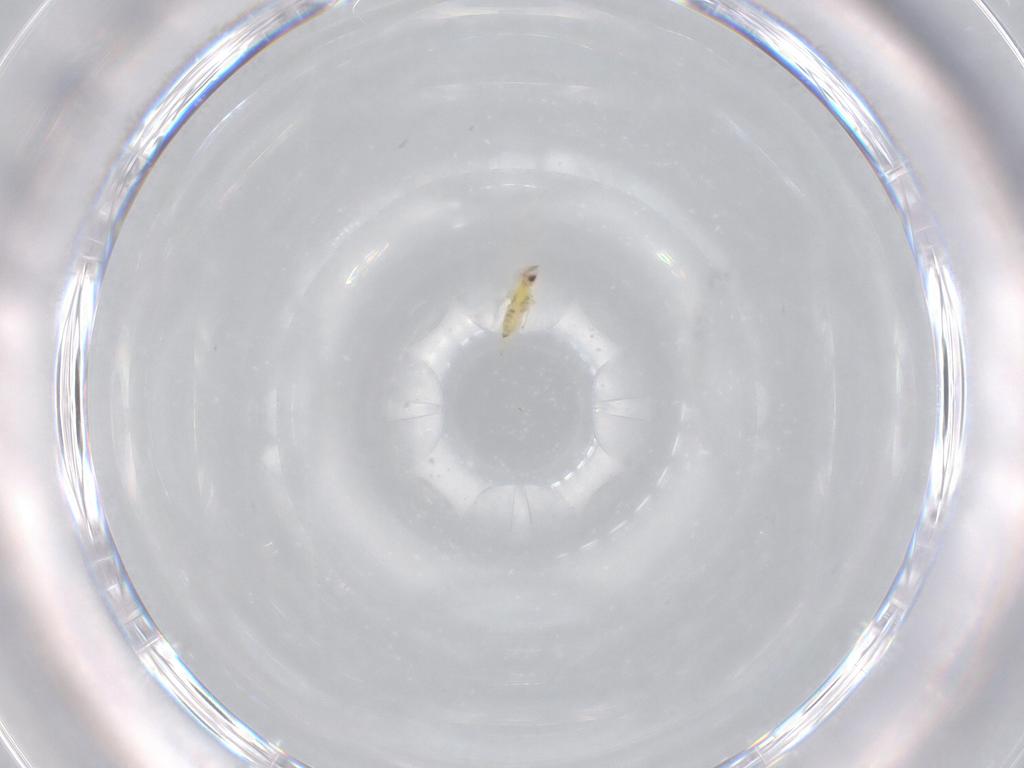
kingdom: Animalia
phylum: Arthropoda
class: Insecta
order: Hymenoptera
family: Trichogrammatidae
